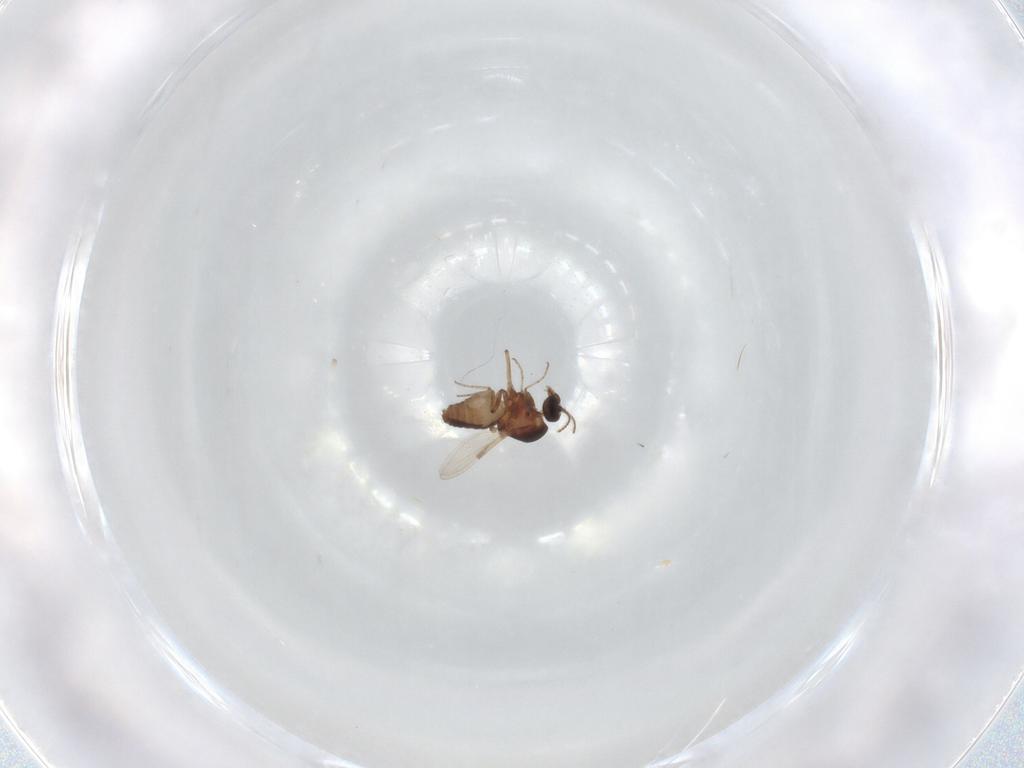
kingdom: Animalia
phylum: Arthropoda
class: Insecta
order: Diptera
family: Ceratopogonidae
